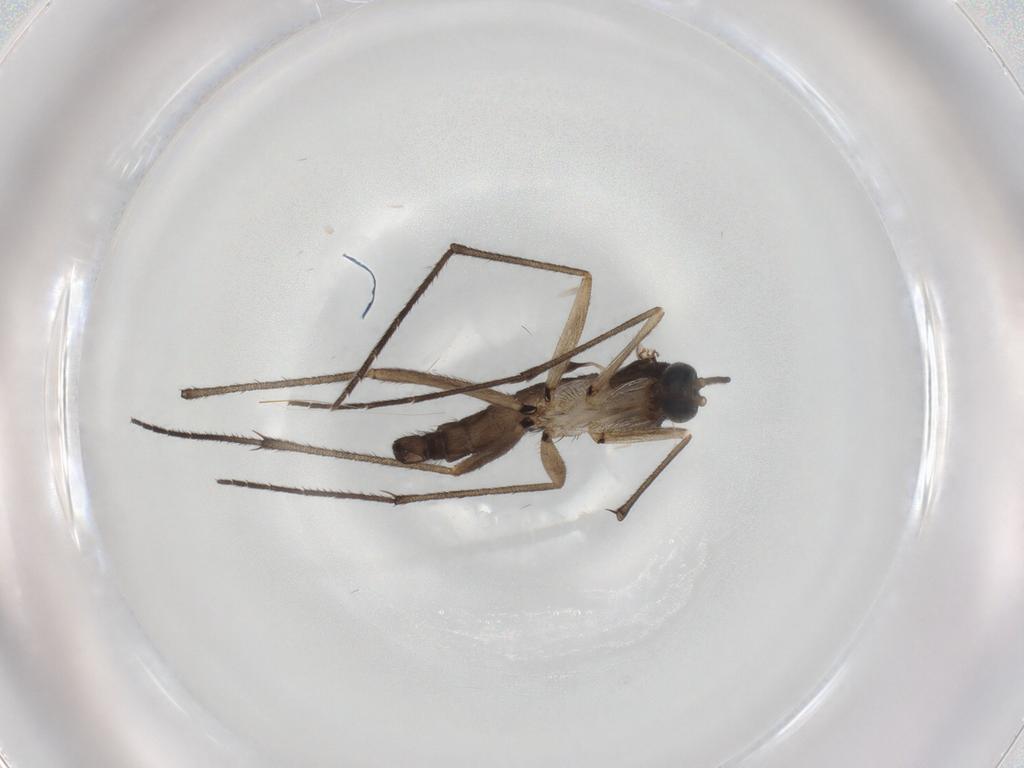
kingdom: Animalia
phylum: Arthropoda
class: Insecta
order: Diptera
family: Sciaridae
